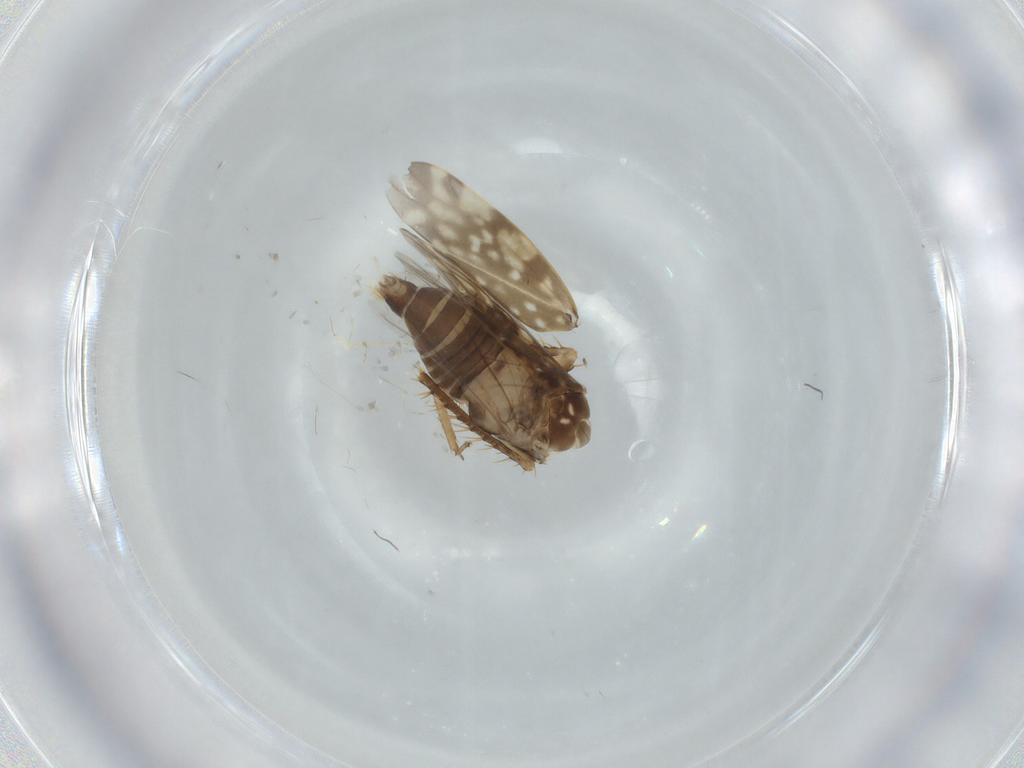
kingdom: Animalia
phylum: Arthropoda
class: Insecta
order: Hemiptera
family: Cicadellidae
